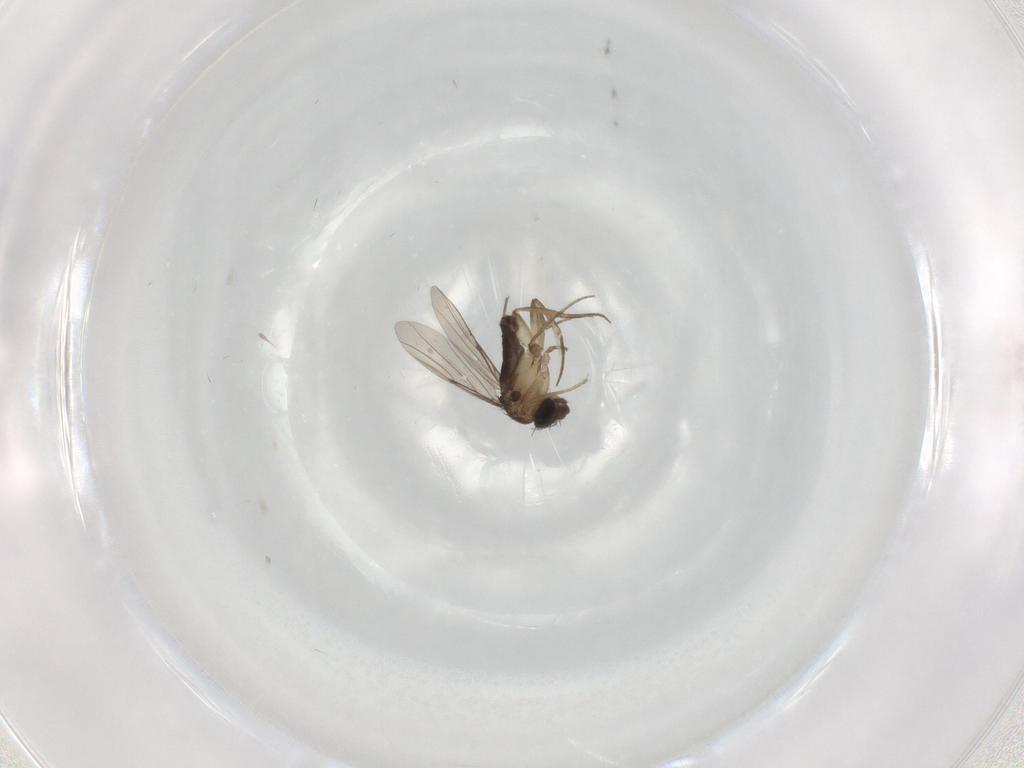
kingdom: Animalia
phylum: Arthropoda
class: Insecta
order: Diptera
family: Phoridae
